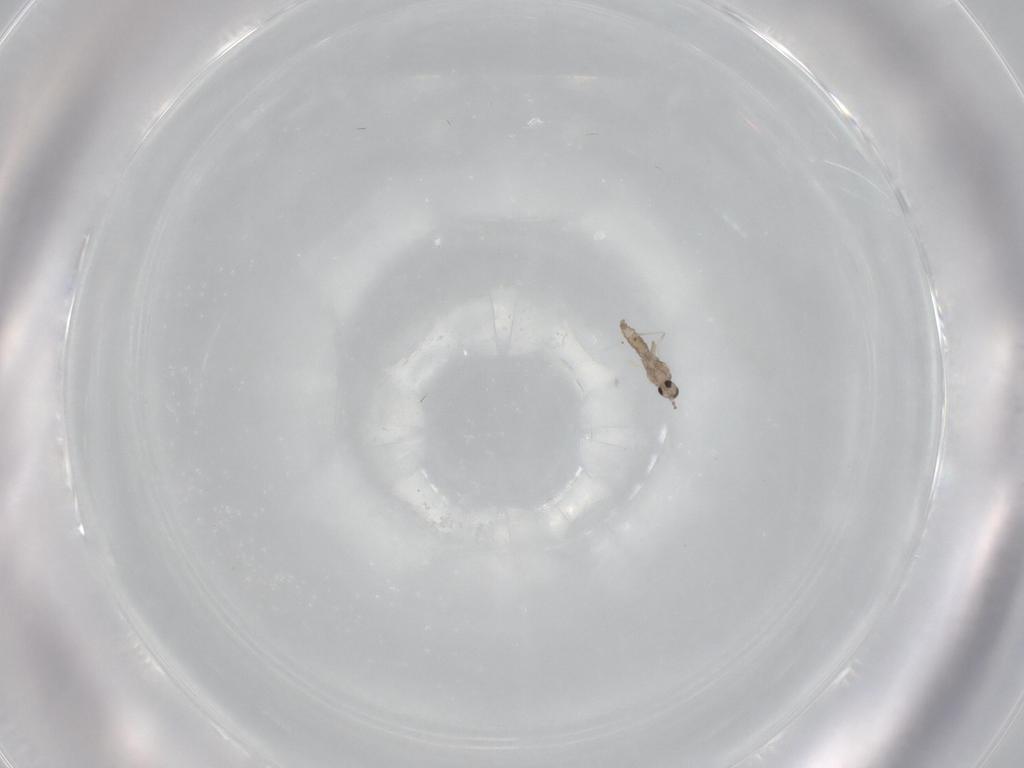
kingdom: Animalia
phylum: Arthropoda
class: Insecta
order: Diptera
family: Cecidomyiidae
